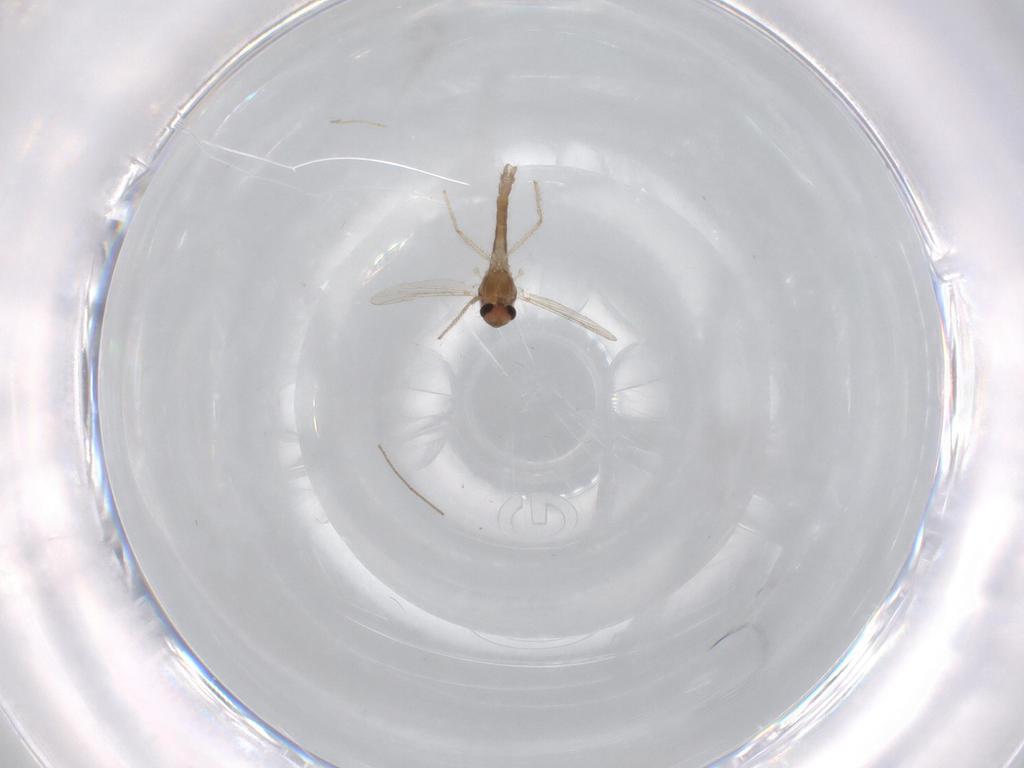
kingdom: Animalia
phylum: Arthropoda
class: Insecta
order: Diptera
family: Chironomidae
